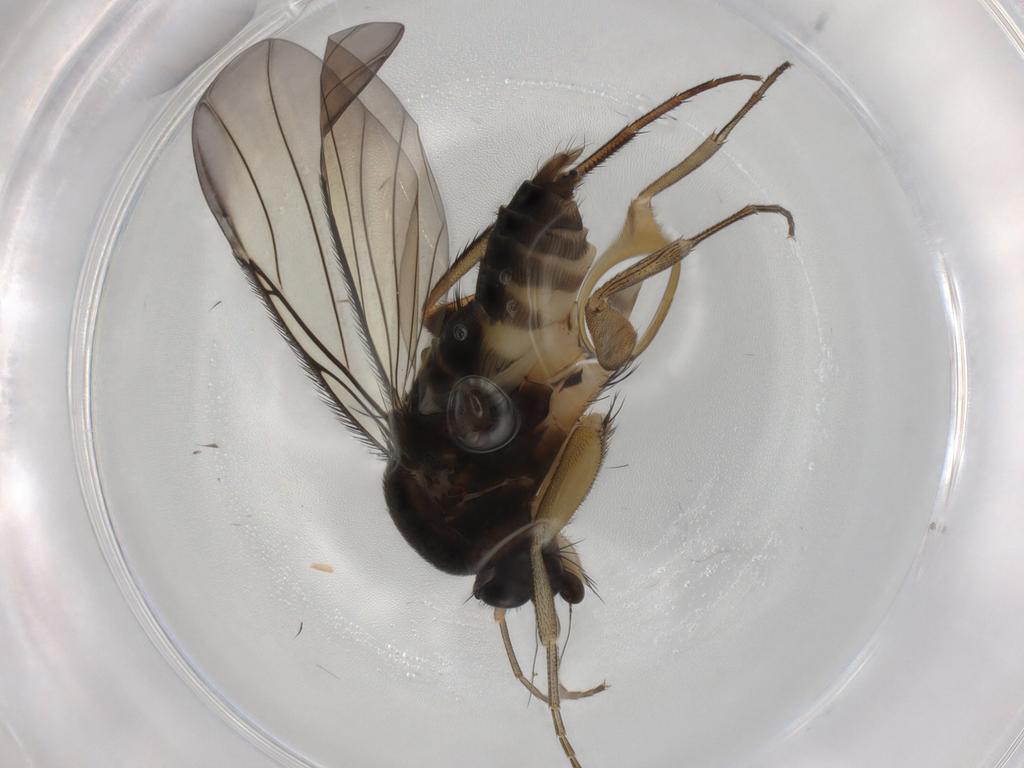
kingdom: Animalia
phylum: Arthropoda
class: Insecta
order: Diptera
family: Phoridae
